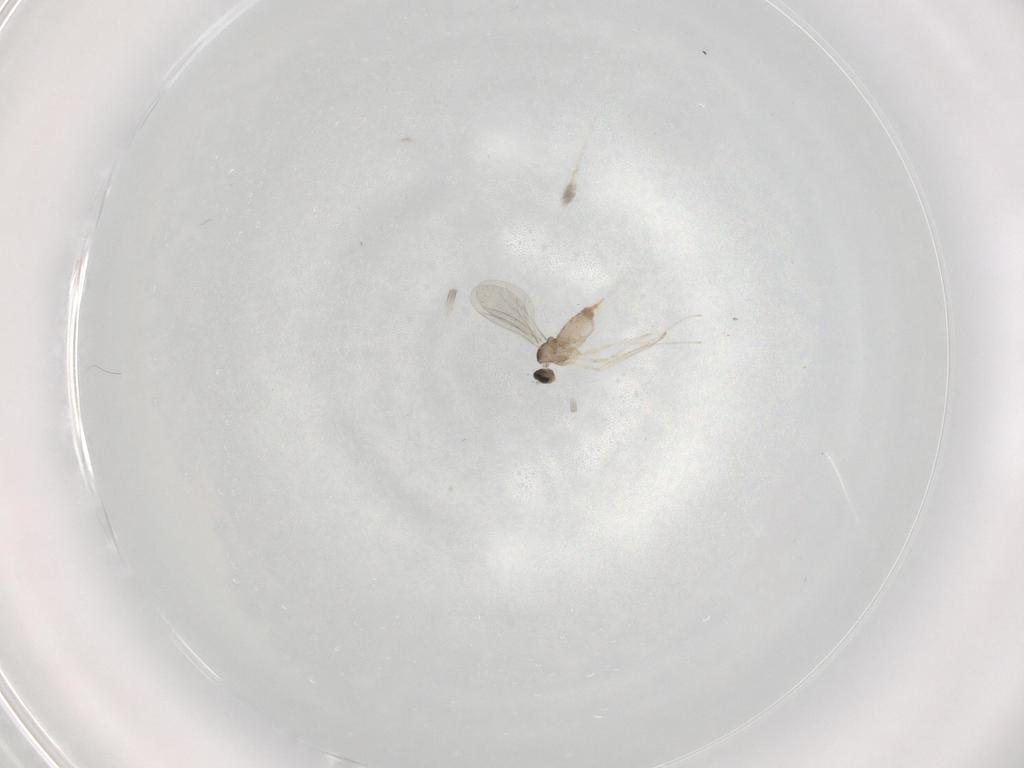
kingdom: Animalia
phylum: Arthropoda
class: Insecta
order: Diptera
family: Cecidomyiidae
